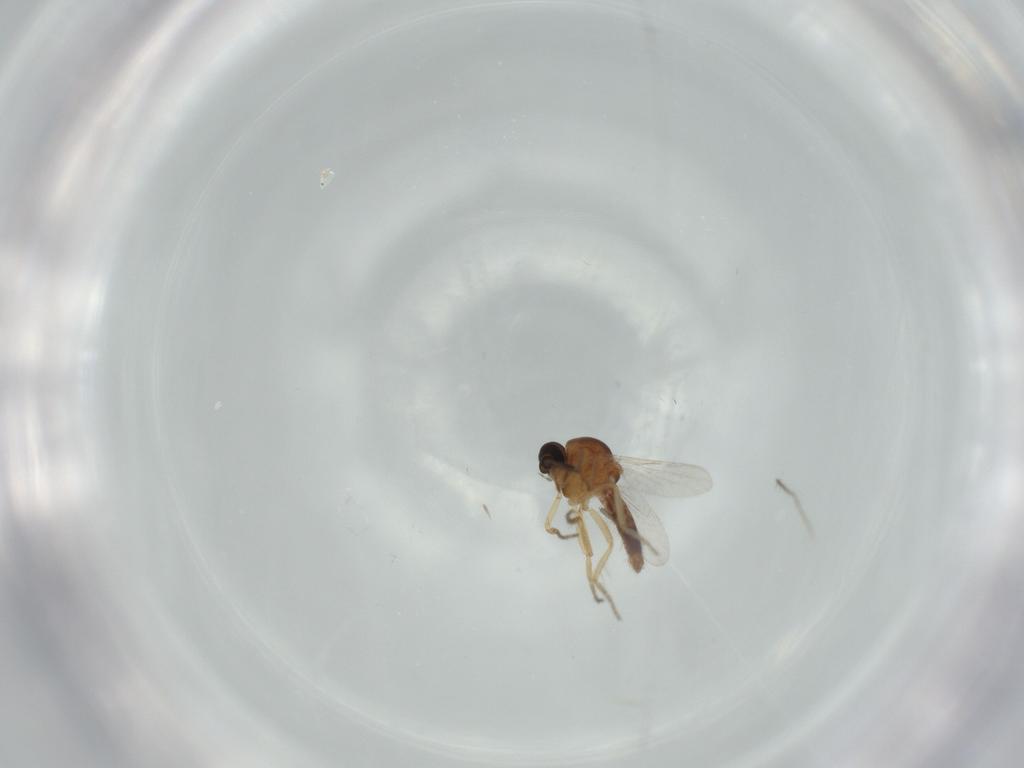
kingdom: Animalia
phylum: Arthropoda
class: Insecta
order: Diptera
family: Ceratopogonidae
